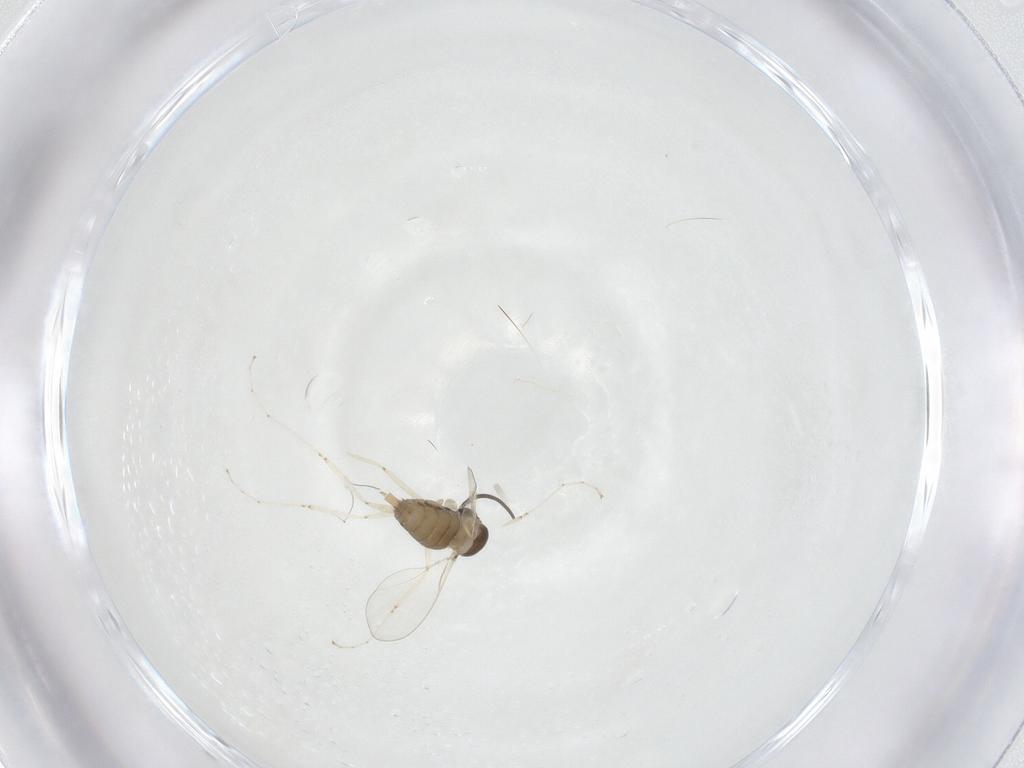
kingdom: Animalia
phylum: Arthropoda
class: Insecta
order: Diptera
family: Cecidomyiidae
